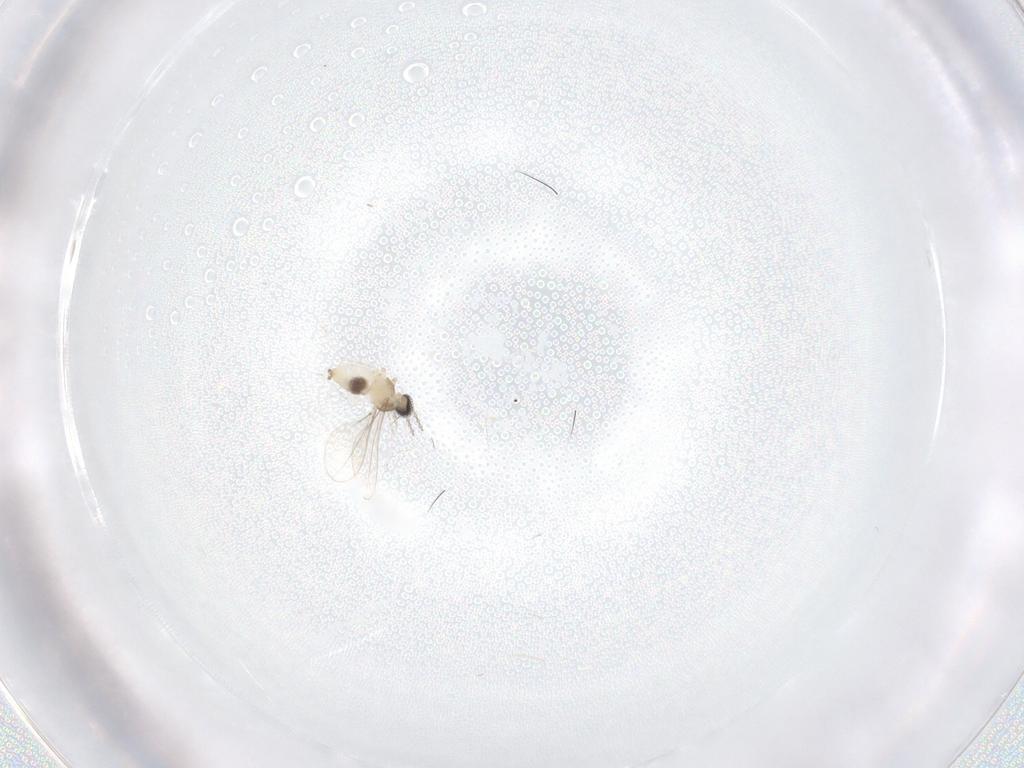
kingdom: Animalia
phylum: Arthropoda
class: Insecta
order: Diptera
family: Cecidomyiidae
